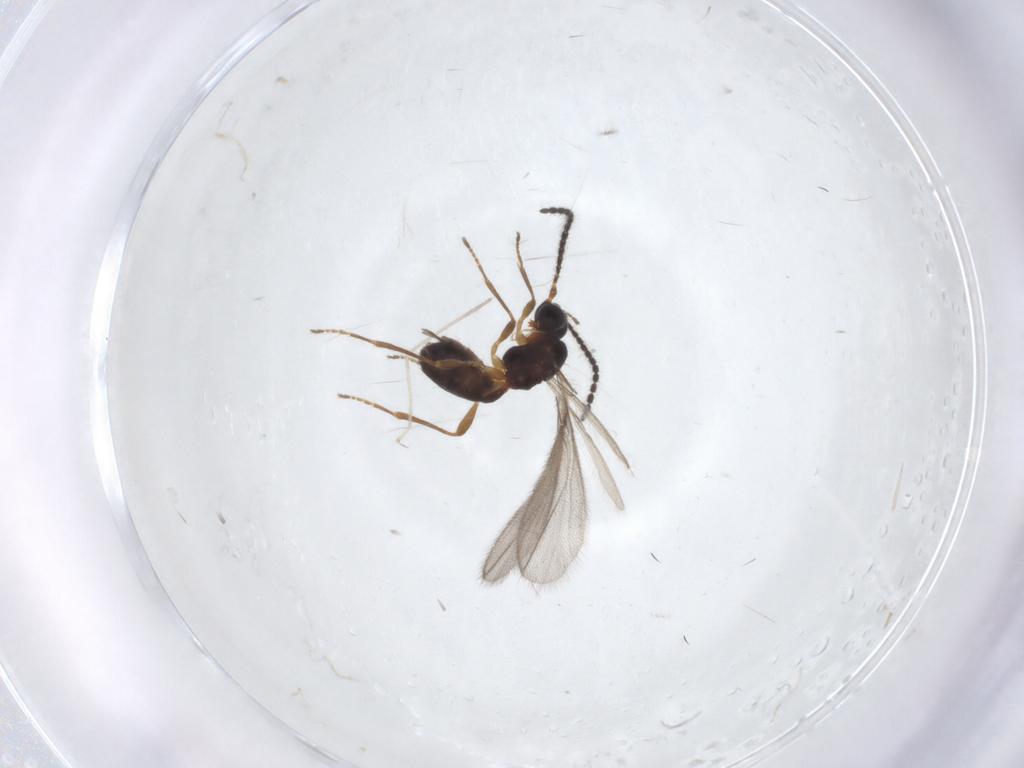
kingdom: Animalia
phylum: Arthropoda
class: Insecta
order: Hymenoptera
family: Braconidae
